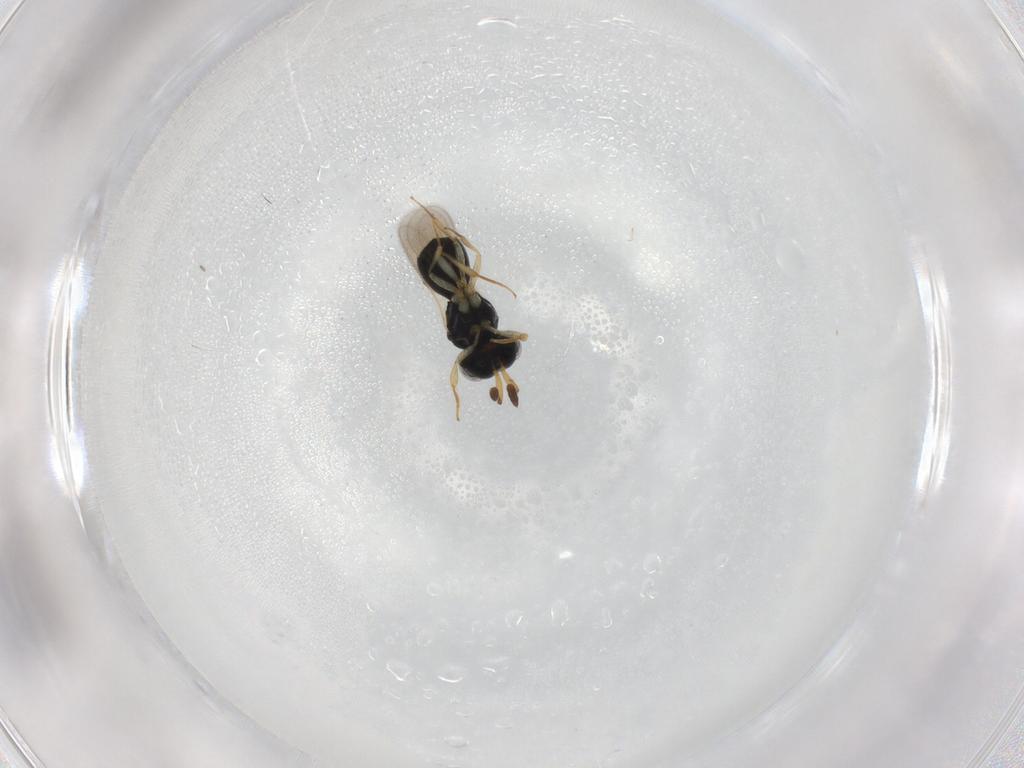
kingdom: Animalia
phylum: Arthropoda
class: Insecta
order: Hymenoptera
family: Scelionidae
